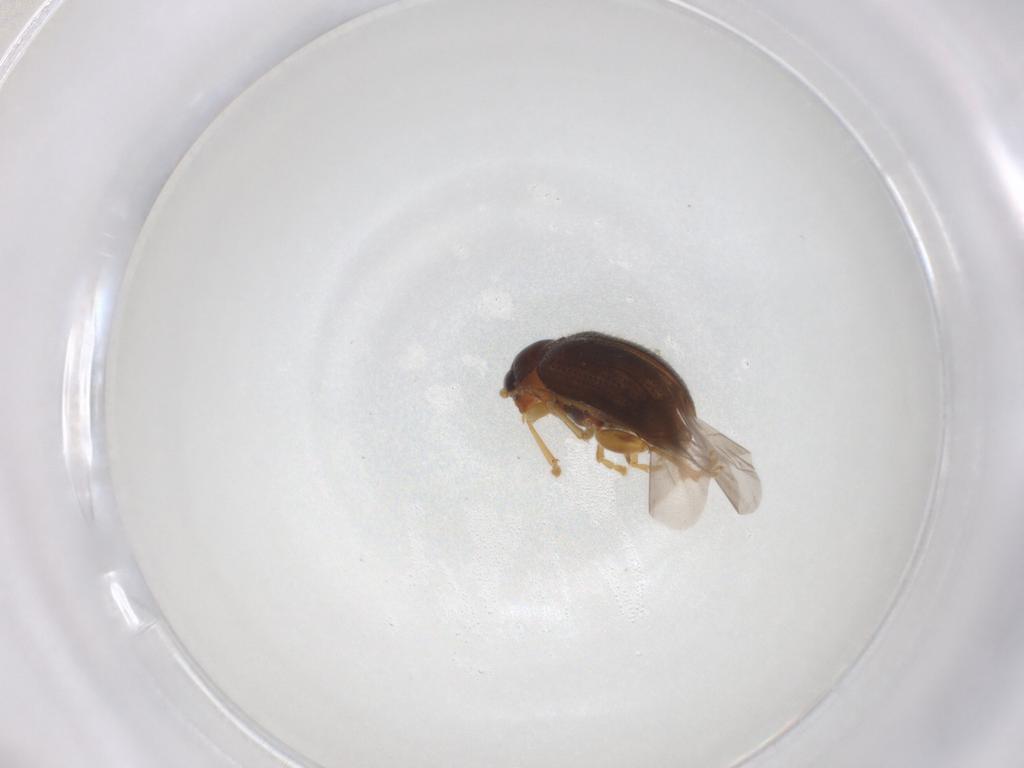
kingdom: Animalia
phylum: Arthropoda
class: Insecta
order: Coleoptera
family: Chrysomelidae
